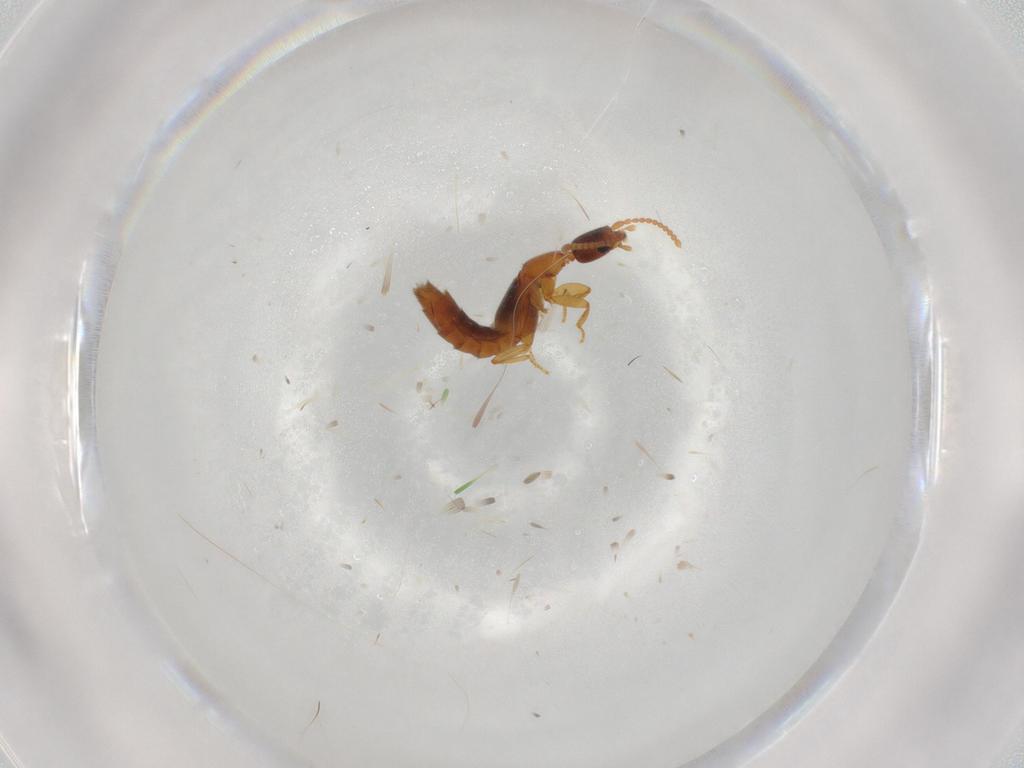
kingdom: Animalia
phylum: Arthropoda
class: Insecta
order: Coleoptera
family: Staphylinidae
